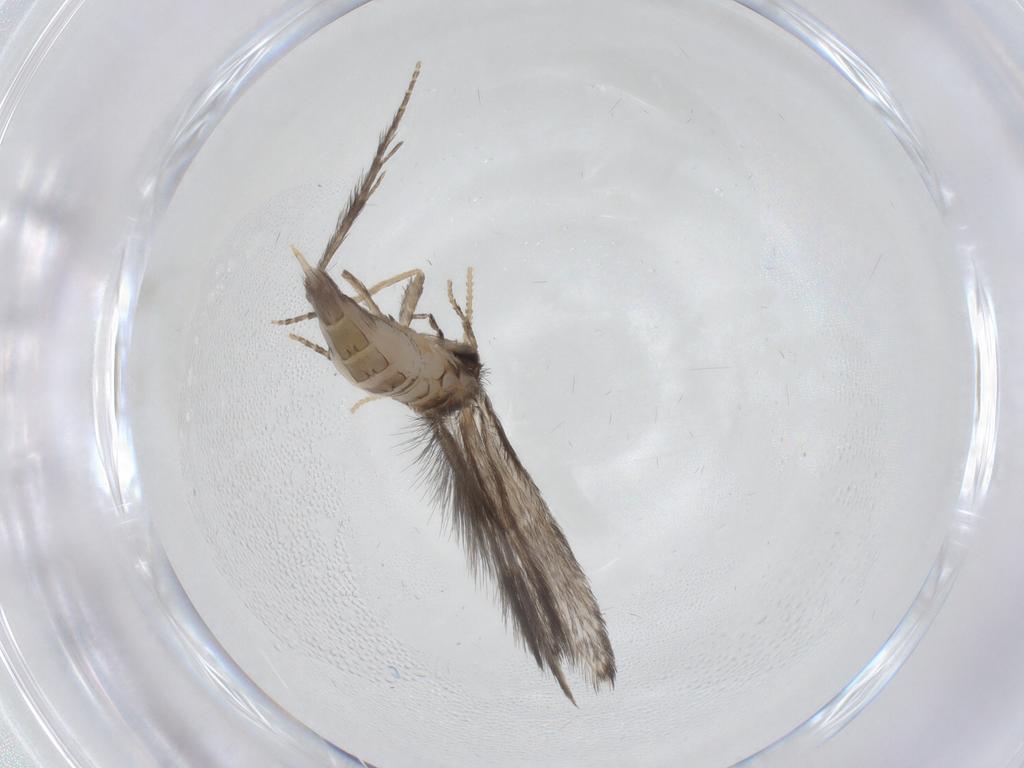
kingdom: Animalia
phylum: Arthropoda
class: Insecta
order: Trichoptera
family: Hydroptilidae
